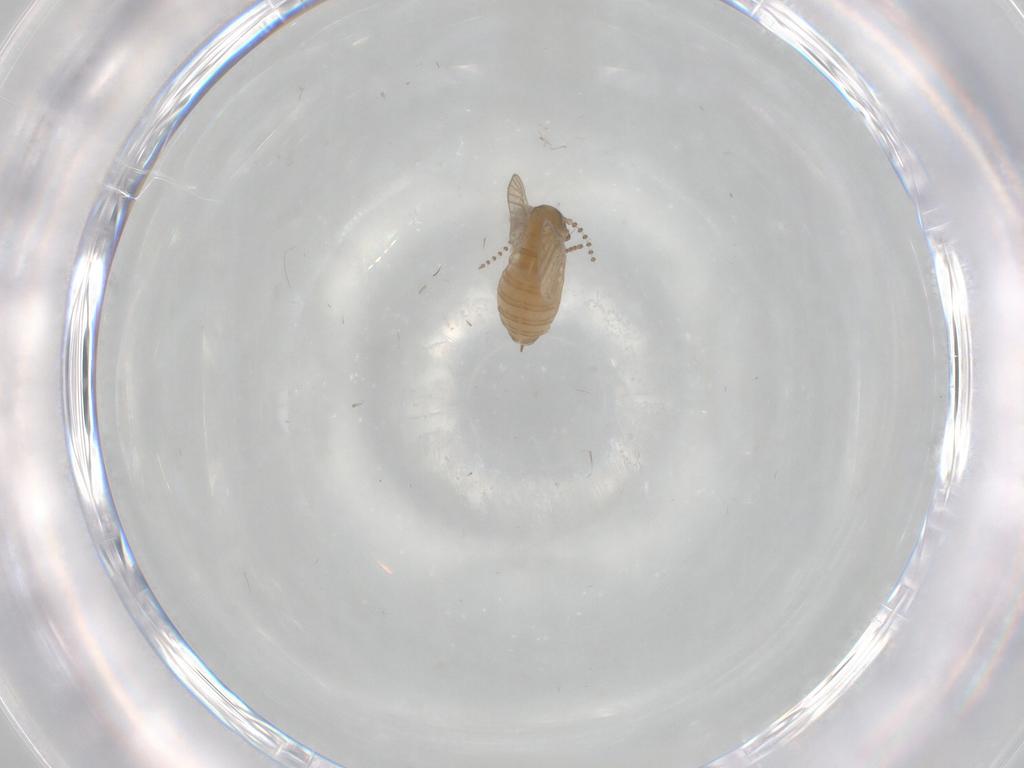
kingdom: Animalia
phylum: Arthropoda
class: Insecta
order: Diptera
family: Psychodidae
